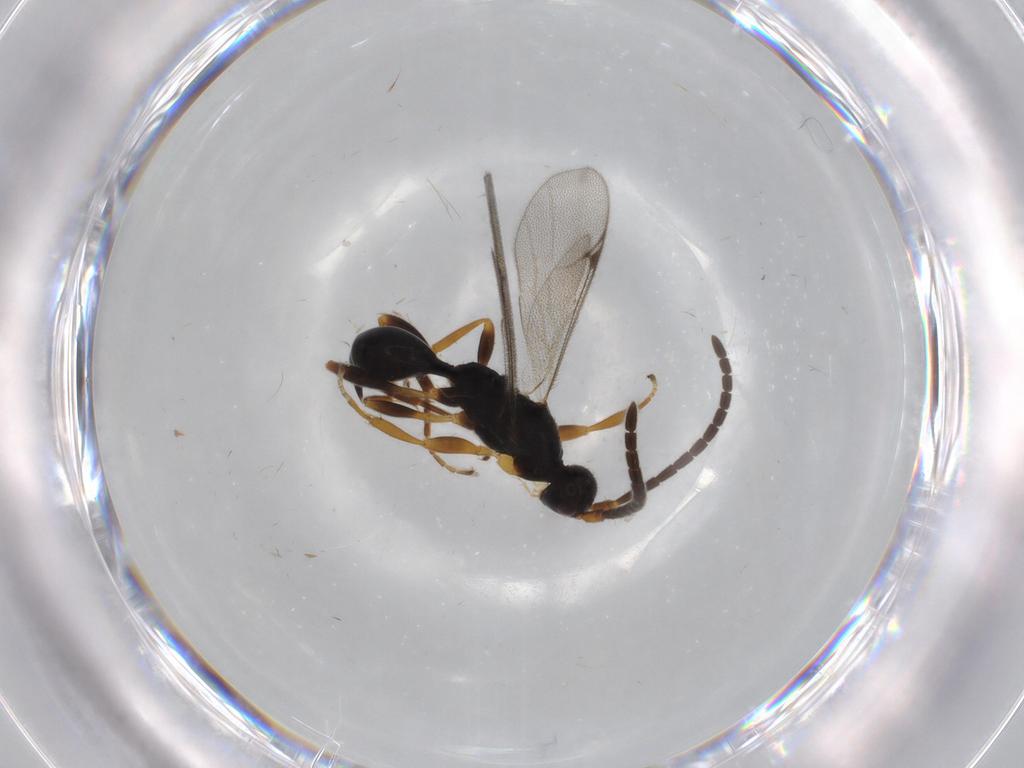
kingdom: Animalia
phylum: Arthropoda
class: Insecta
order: Hymenoptera
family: Proctotrupidae
